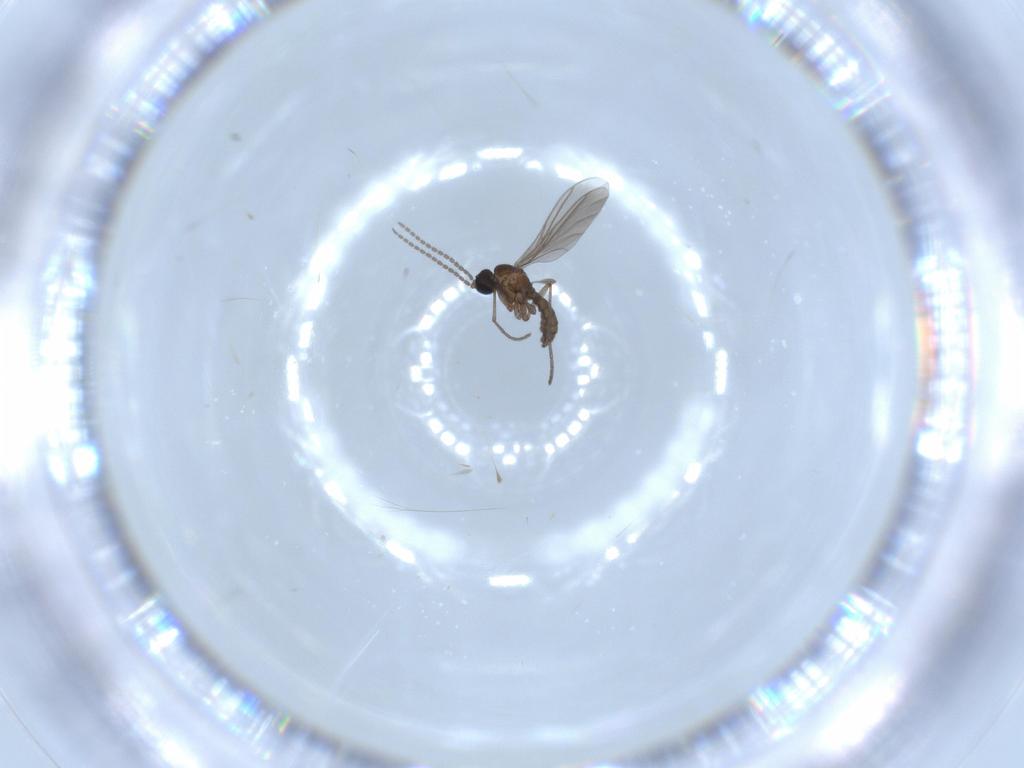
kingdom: Animalia
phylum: Arthropoda
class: Insecta
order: Diptera
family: Sciaridae
